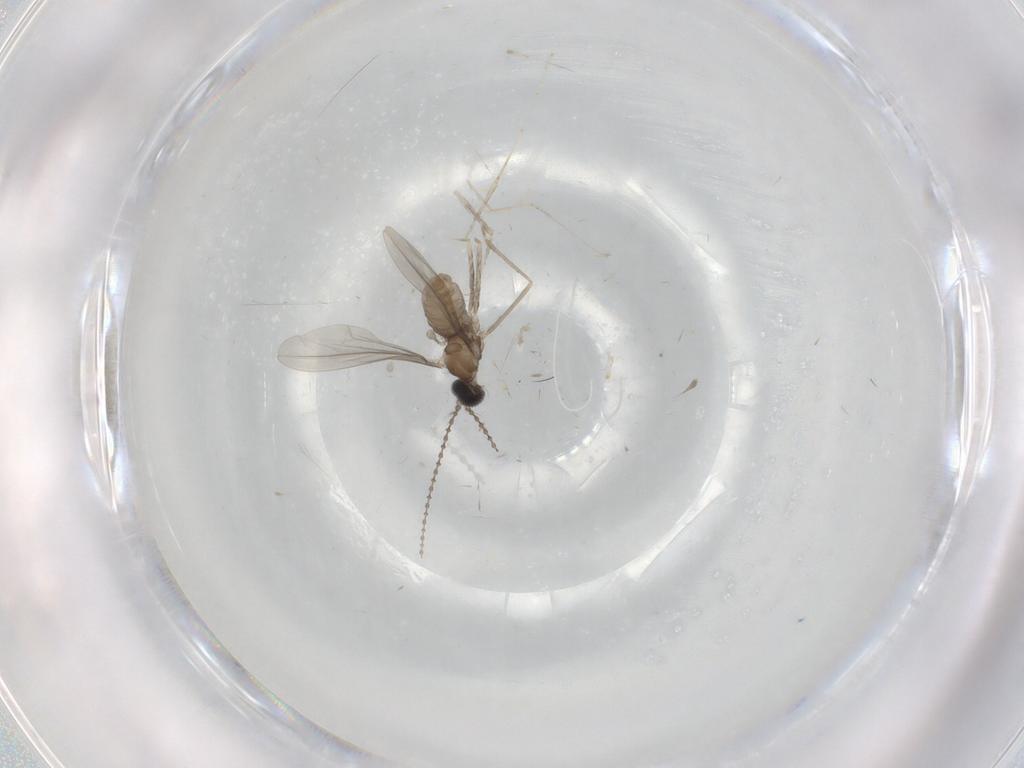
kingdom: Animalia
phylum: Arthropoda
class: Insecta
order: Diptera
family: Cecidomyiidae
